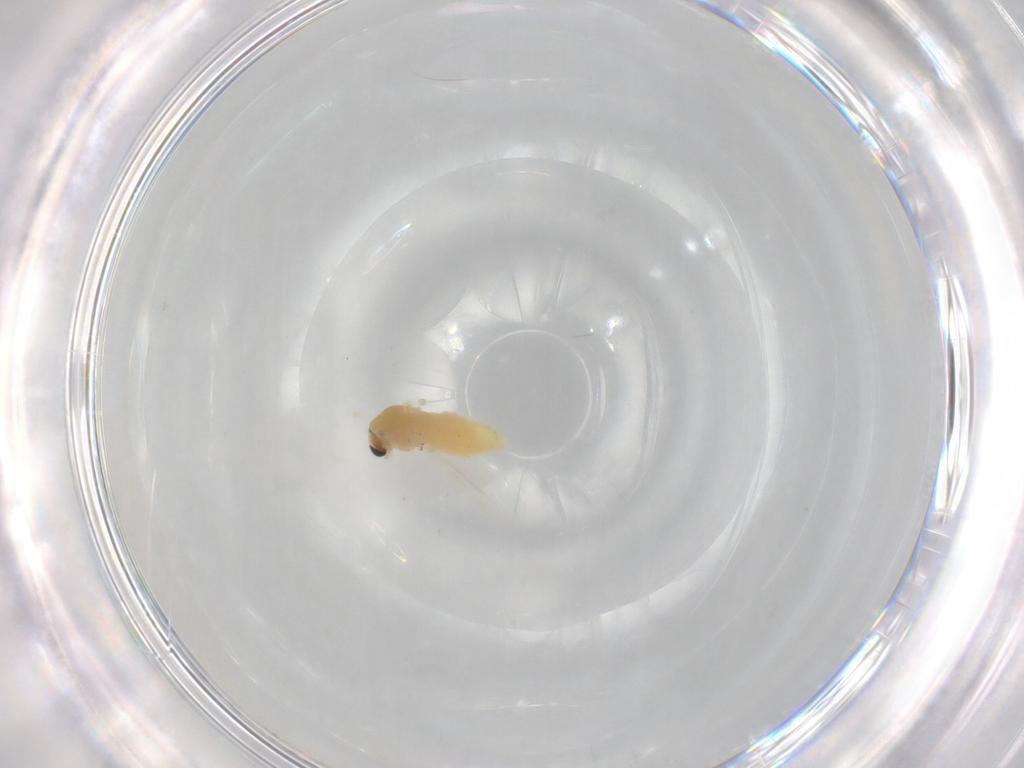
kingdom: Animalia
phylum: Arthropoda
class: Insecta
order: Diptera
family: Chironomidae
